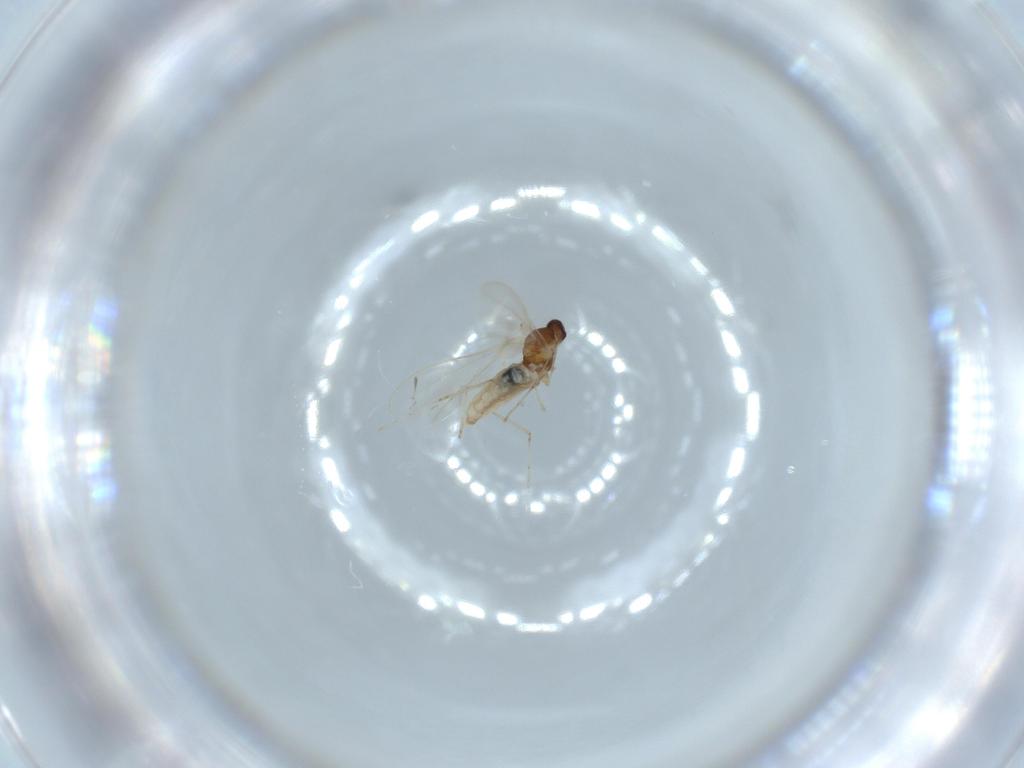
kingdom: Animalia
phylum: Arthropoda
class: Insecta
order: Diptera
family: Cecidomyiidae
